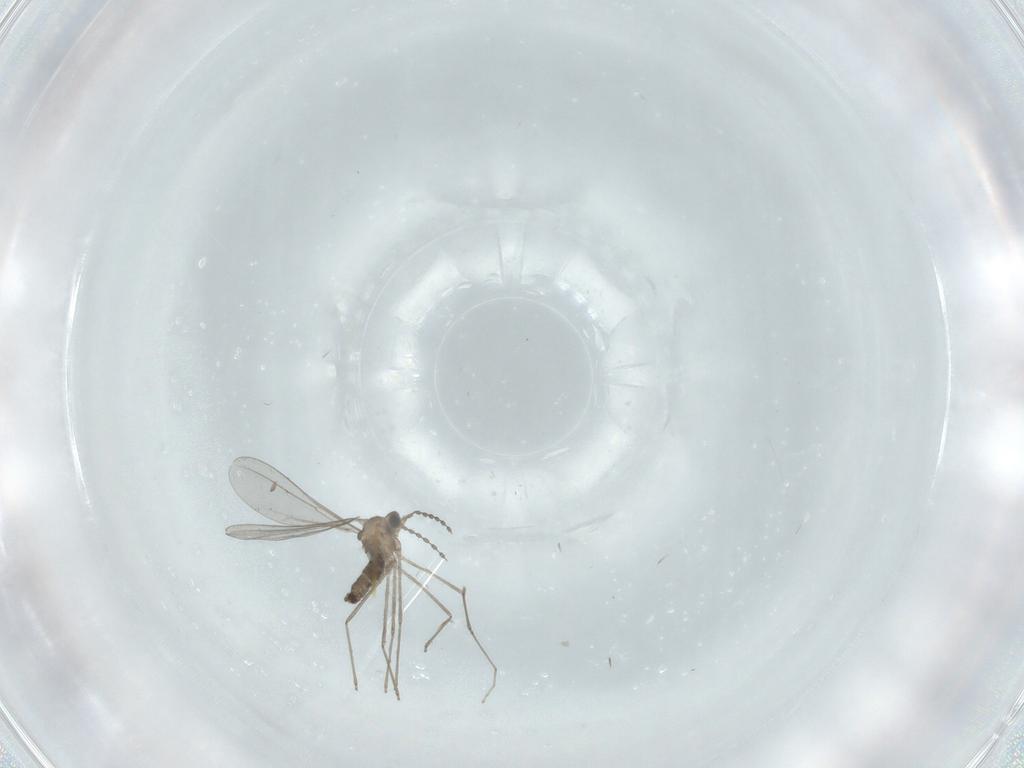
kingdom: Animalia
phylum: Arthropoda
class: Insecta
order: Diptera
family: Cecidomyiidae
